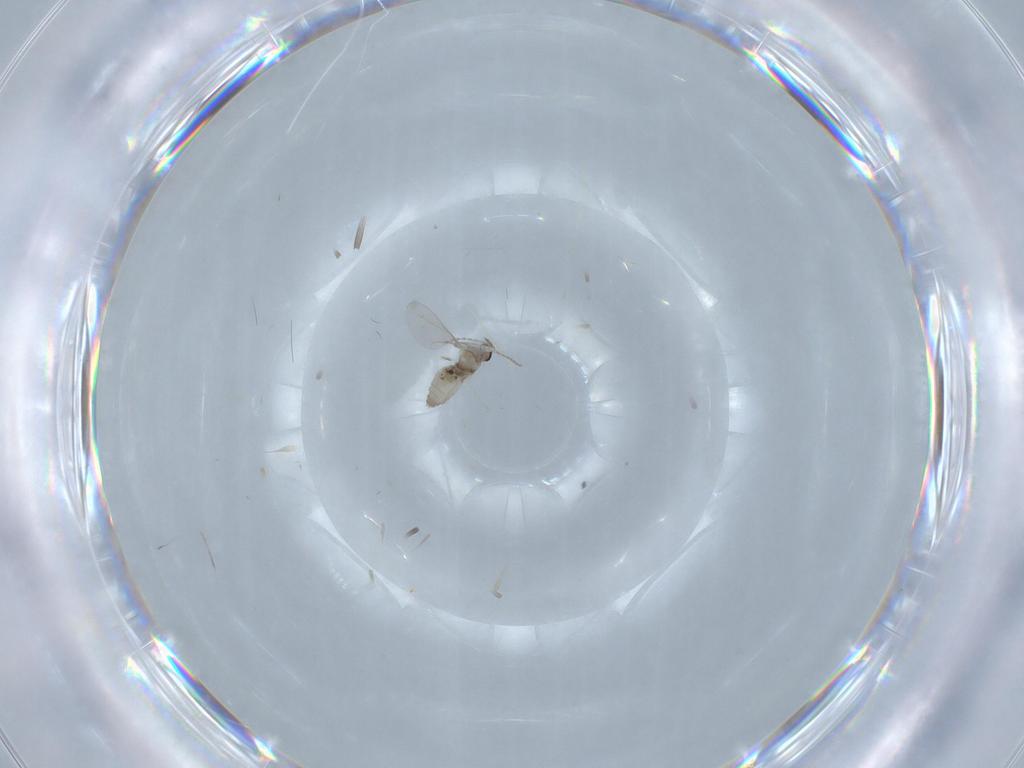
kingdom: Animalia
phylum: Arthropoda
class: Insecta
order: Diptera
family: Cecidomyiidae
